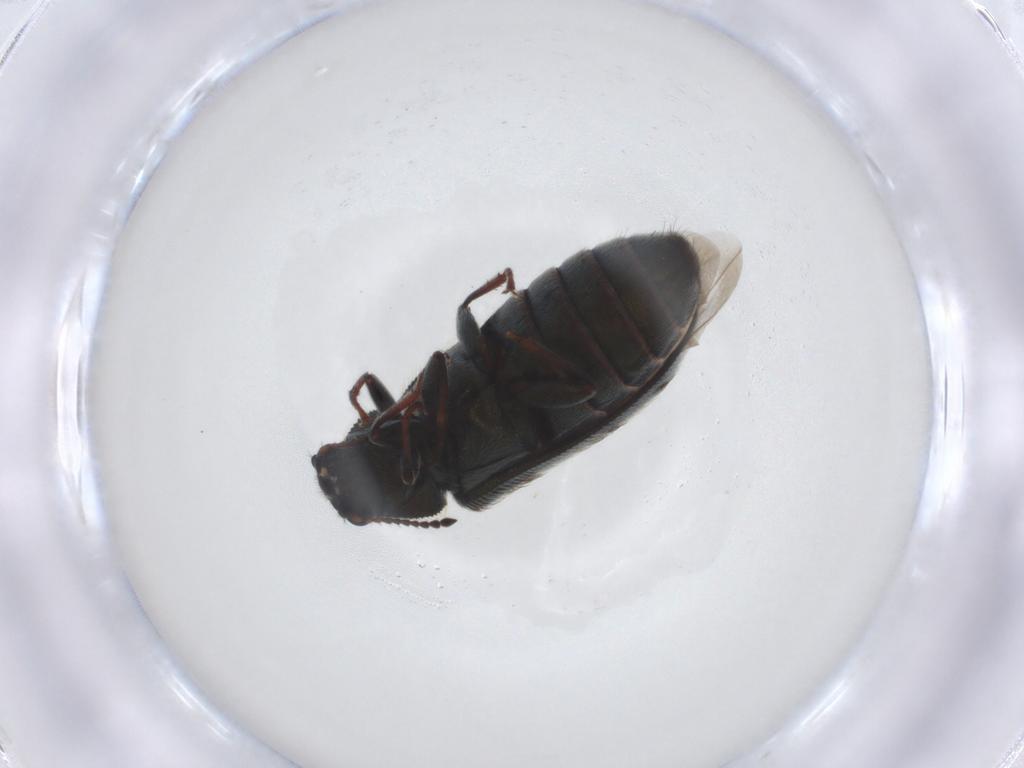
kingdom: Animalia
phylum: Arthropoda
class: Insecta
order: Coleoptera
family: Melyridae
